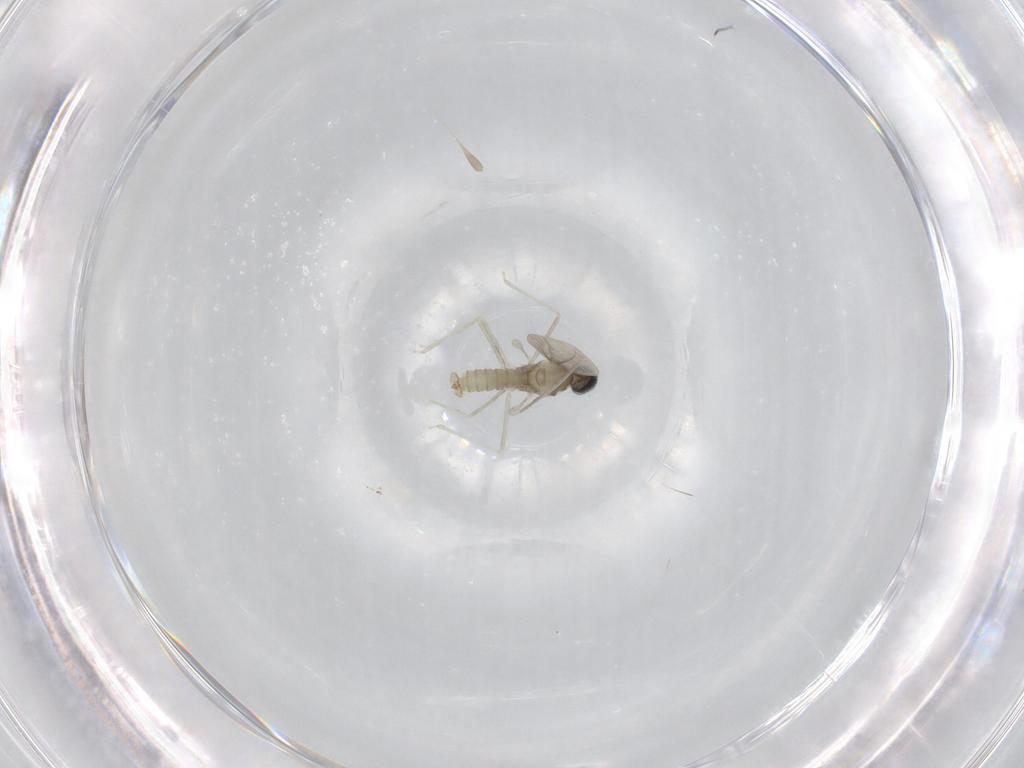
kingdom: Animalia
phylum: Arthropoda
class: Insecta
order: Diptera
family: Cecidomyiidae
